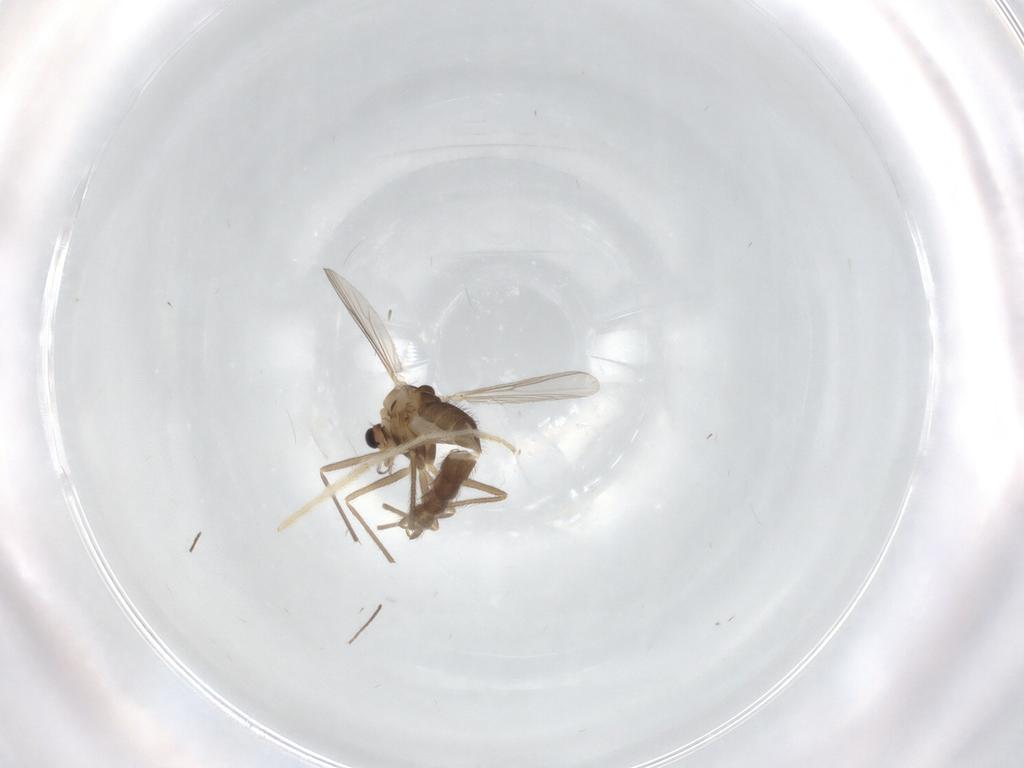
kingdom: Animalia
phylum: Arthropoda
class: Insecta
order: Diptera
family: Chironomidae
